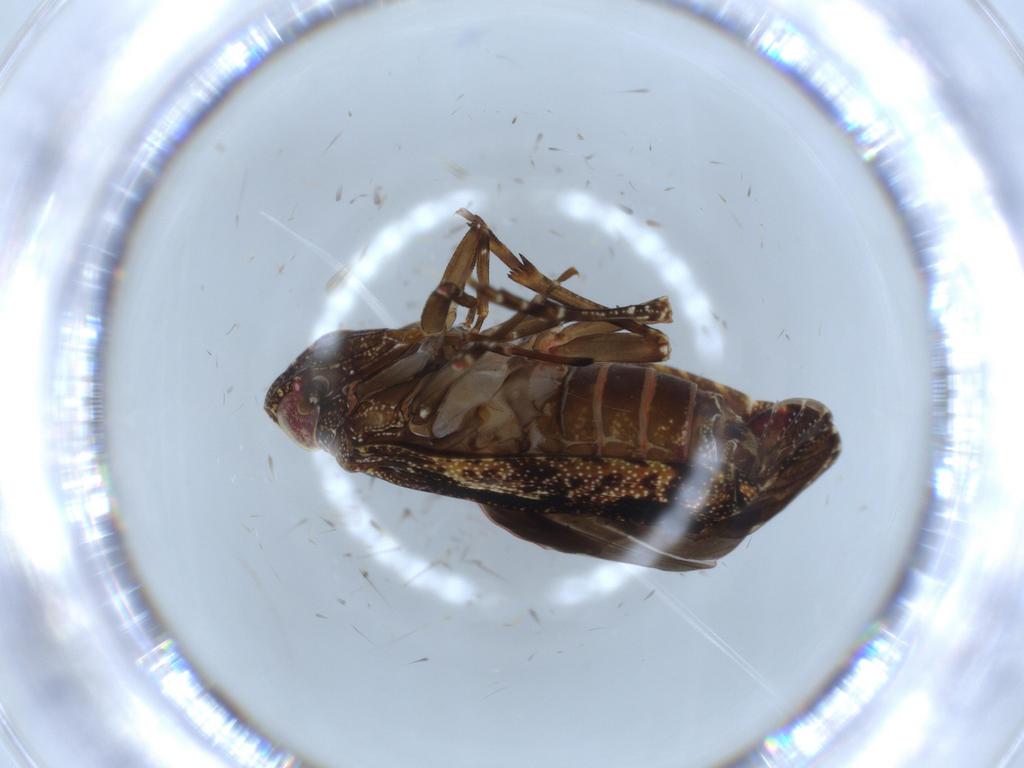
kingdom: Animalia
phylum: Arthropoda
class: Insecta
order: Hemiptera
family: Achilidae
